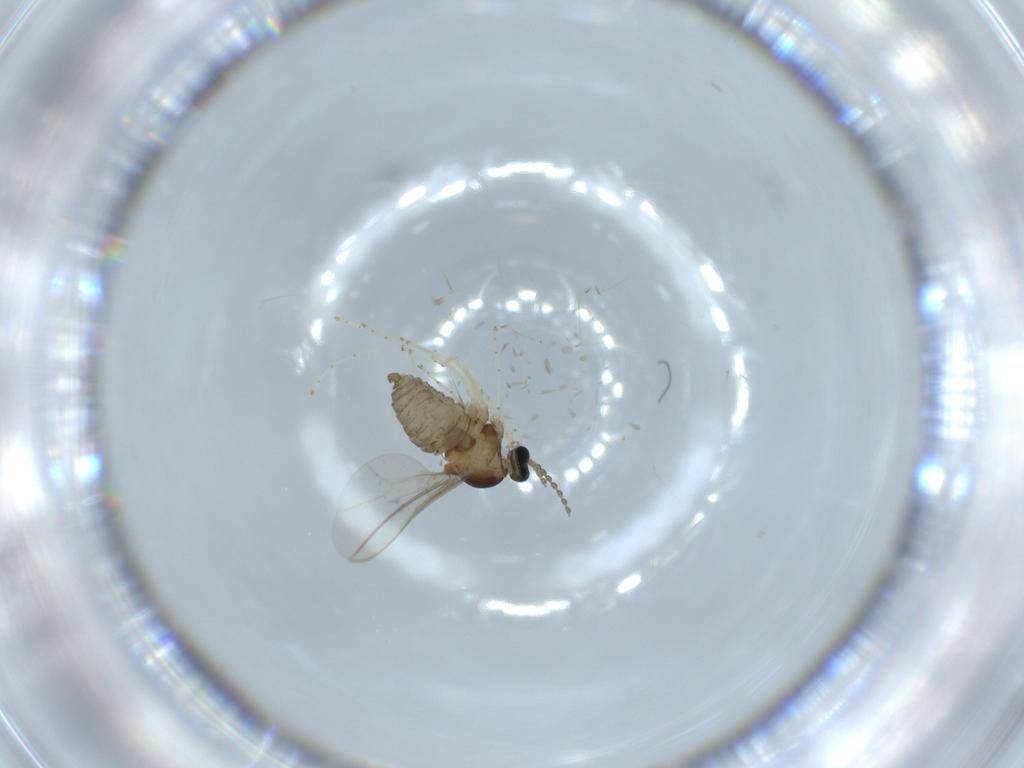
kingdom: Animalia
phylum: Arthropoda
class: Insecta
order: Diptera
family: Cecidomyiidae
